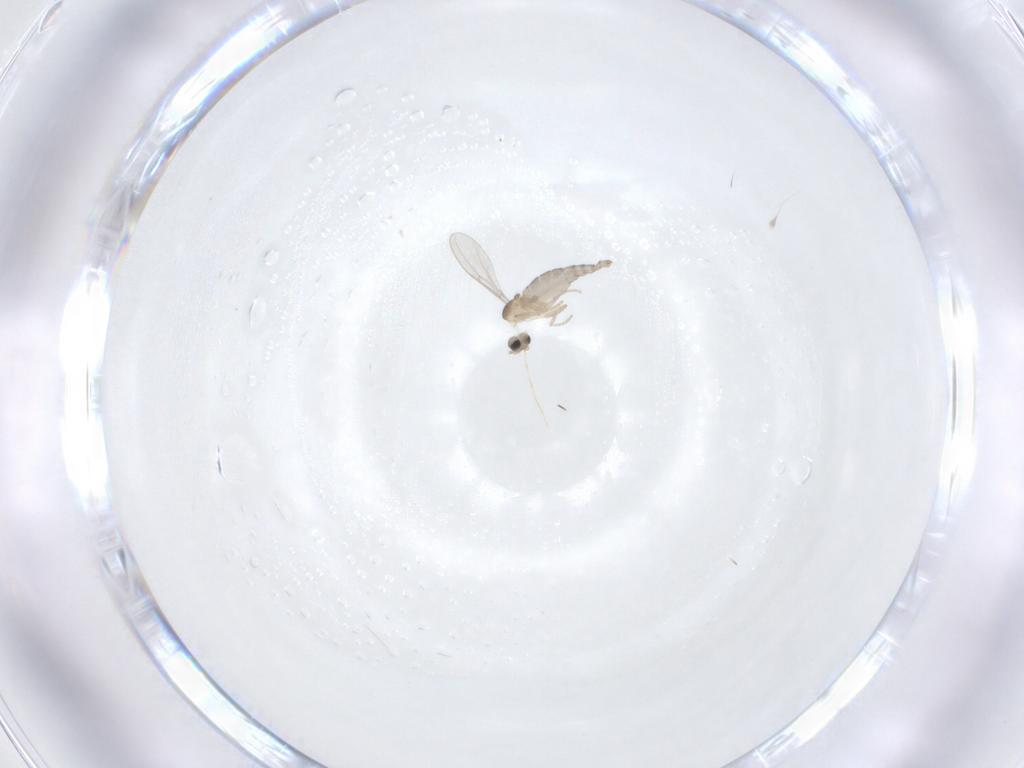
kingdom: Animalia
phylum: Arthropoda
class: Insecta
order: Diptera
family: Cecidomyiidae
